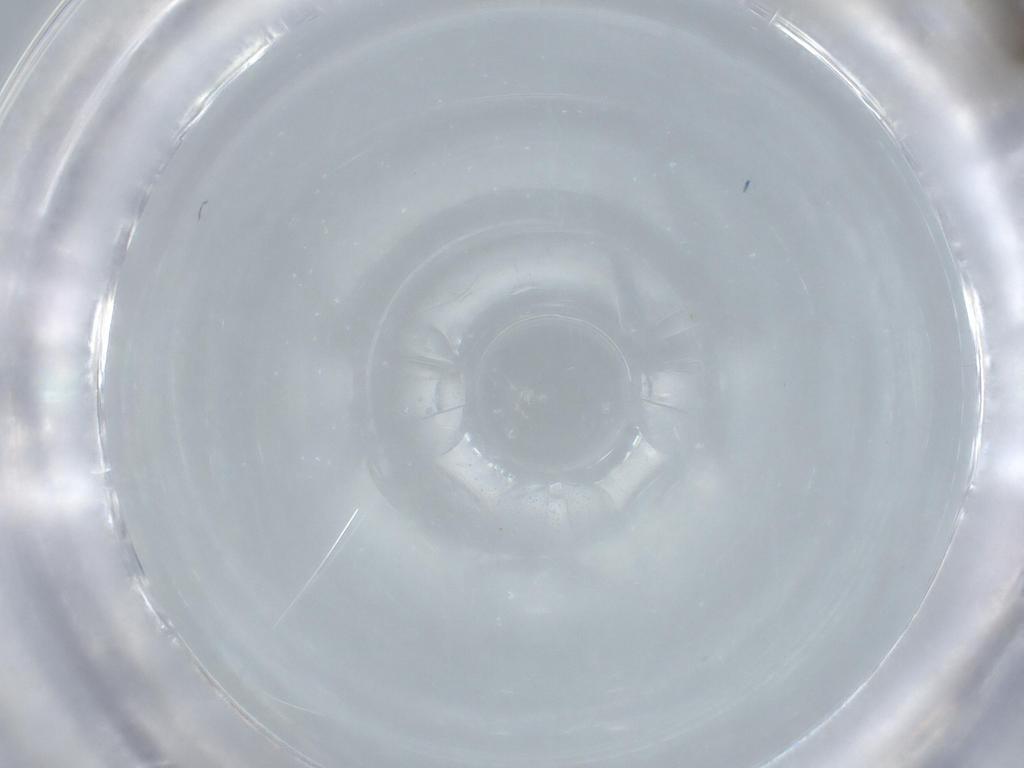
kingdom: Animalia
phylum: Arthropoda
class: Insecta
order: Diptera
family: Chironomidae
